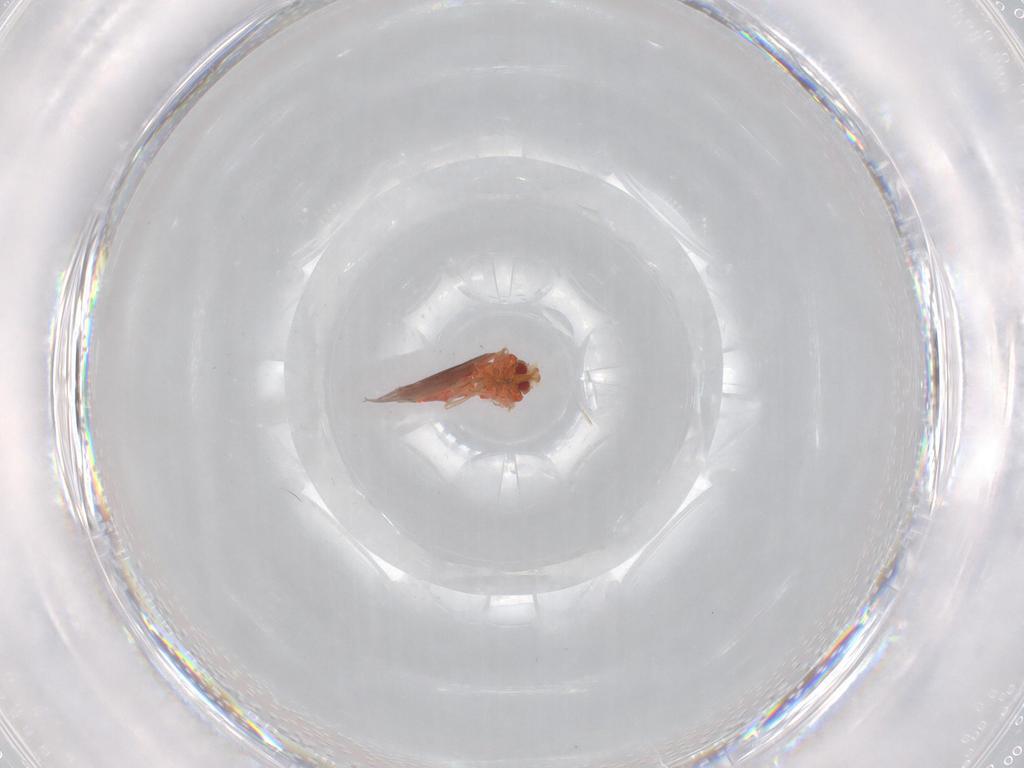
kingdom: Animalia
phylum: Arthropoda
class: Insecta
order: Hemiptera
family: Aleyrodidae
